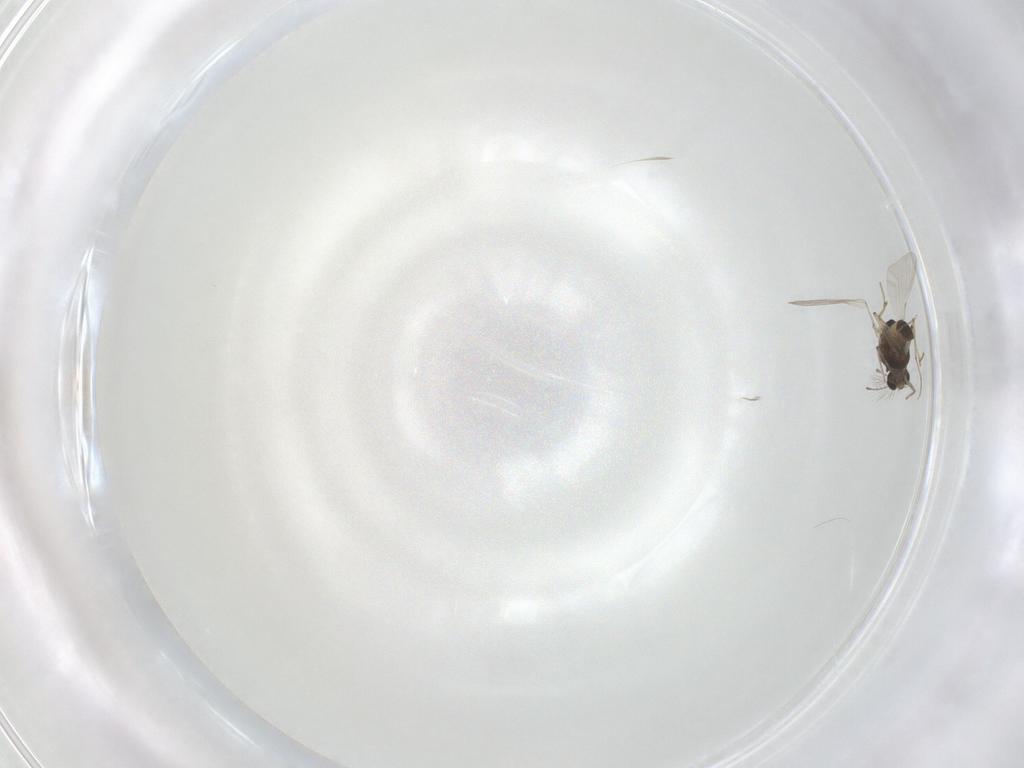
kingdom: Animalia
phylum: Arthropoda
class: Insecta
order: Diptera
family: Chironomidae
